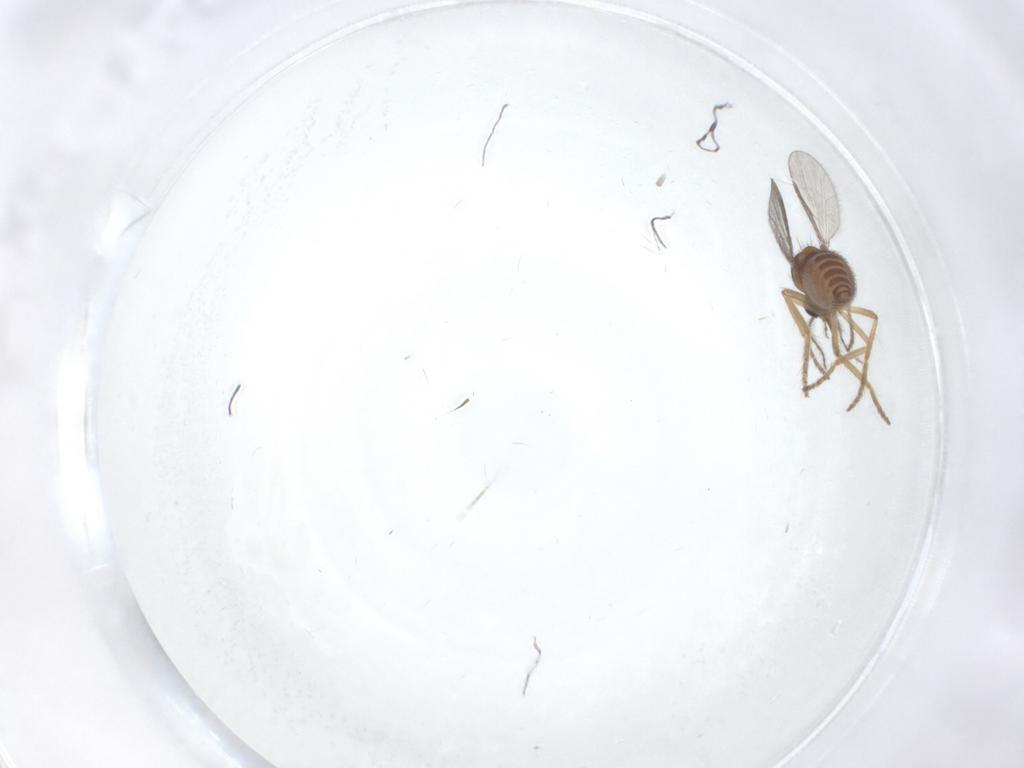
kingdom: Animalia
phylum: Arthropoda
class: Insecta
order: Diptera
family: Ceratopogonidae
